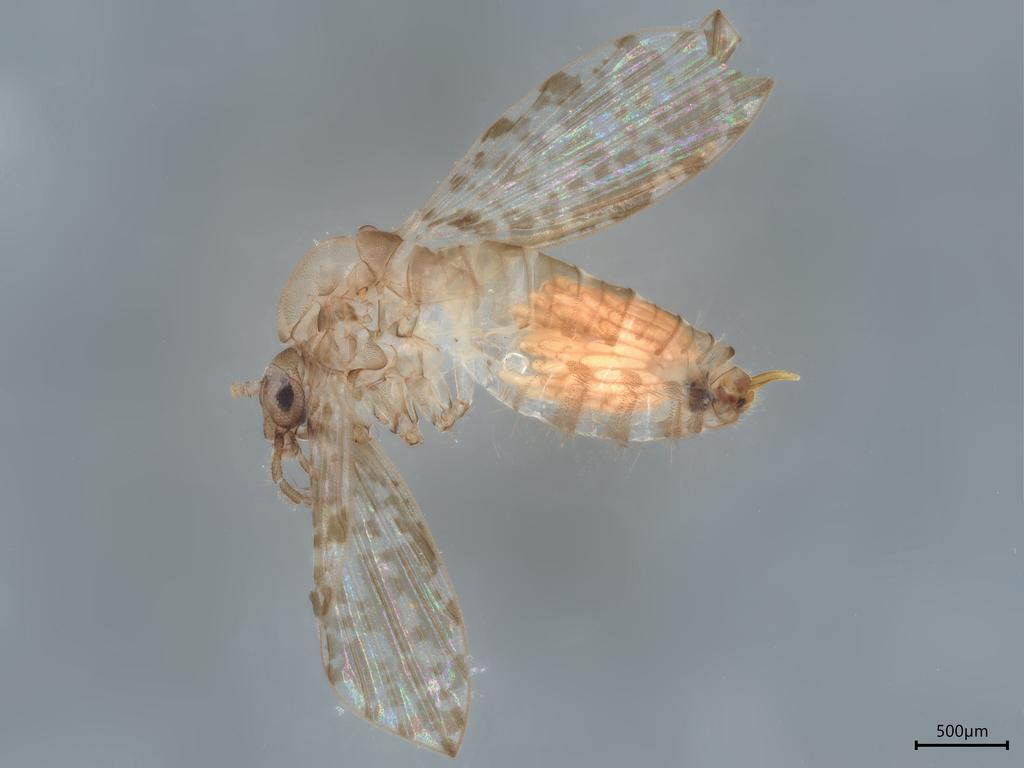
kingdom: Animalia
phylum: Arthropoda
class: Insecta
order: Diptera
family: Psychodidae
